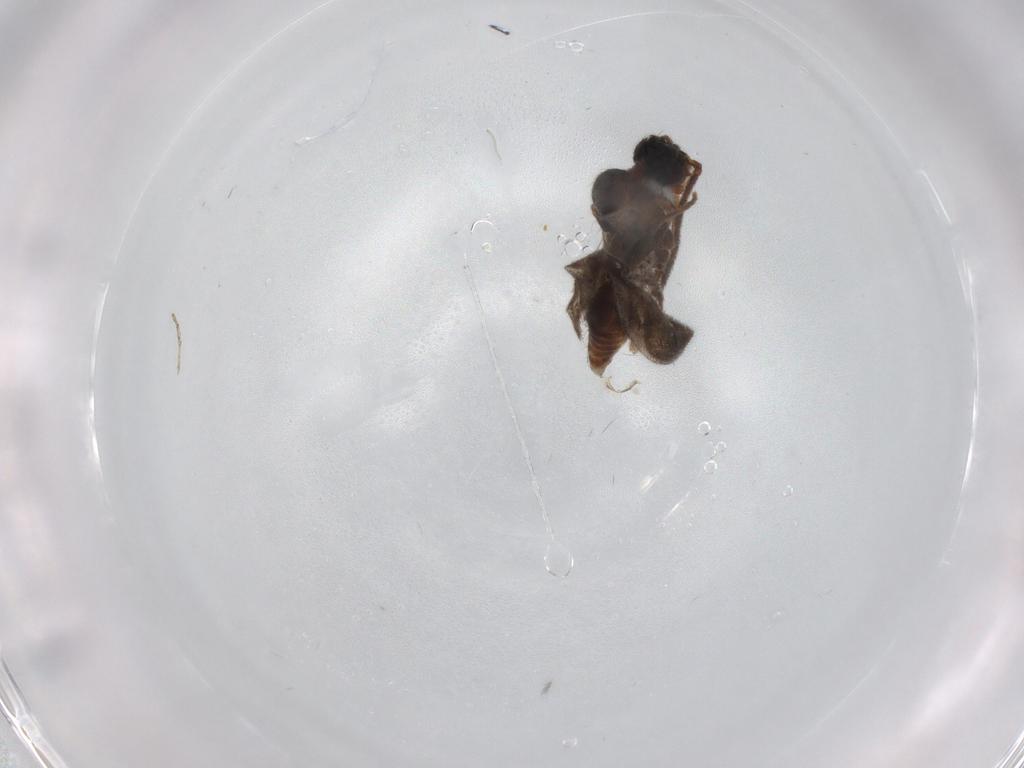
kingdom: Animalia
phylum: Arthropoda
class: Insecta
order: Hymenoptera
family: Formicidae
